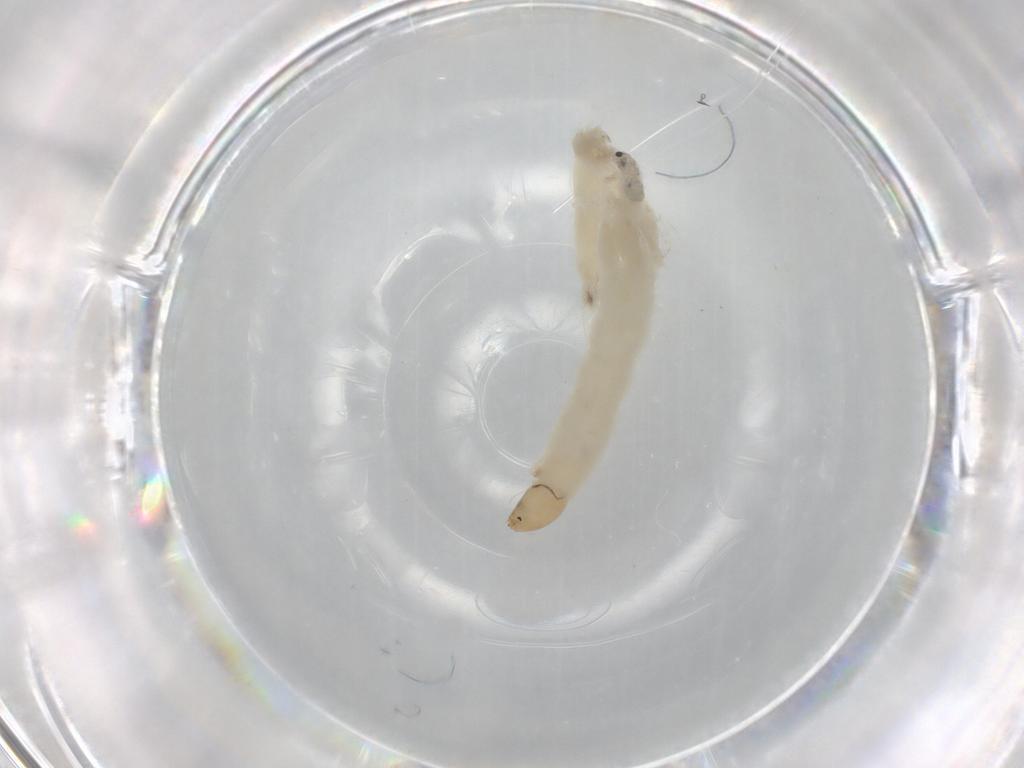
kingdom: Animalia
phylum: Arthropoda
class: Insecta
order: Diptera
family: Chironomidae
